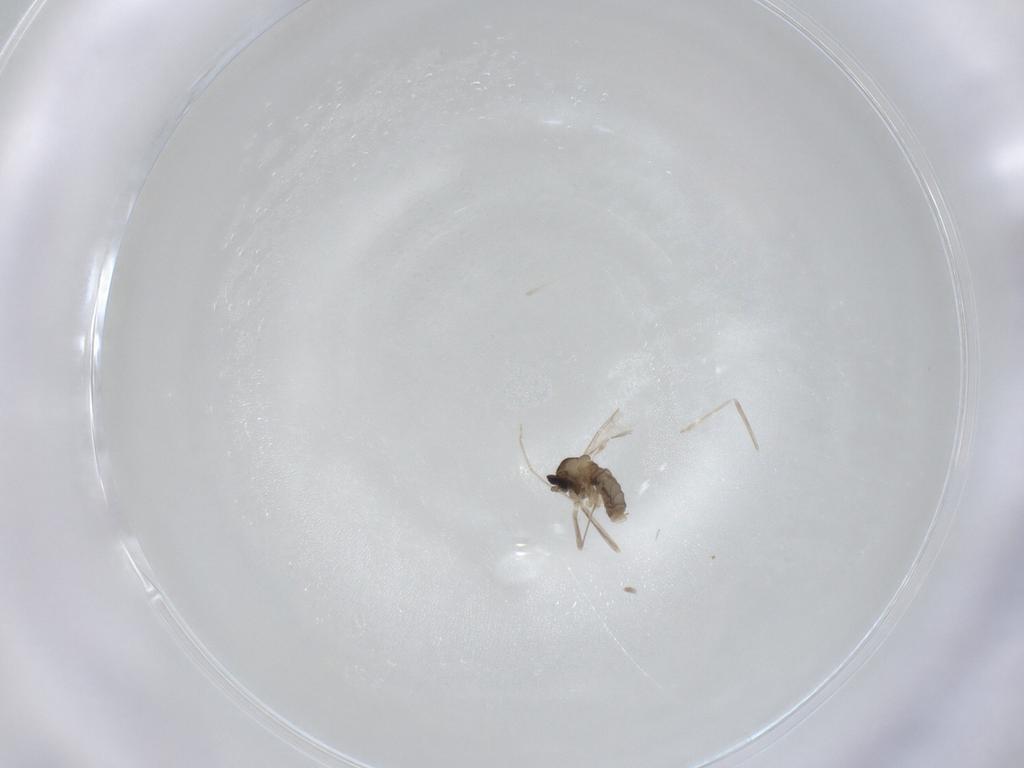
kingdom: Animalia
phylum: Arthropoda
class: Insecta
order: Diptera
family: Cecidomyiidae
